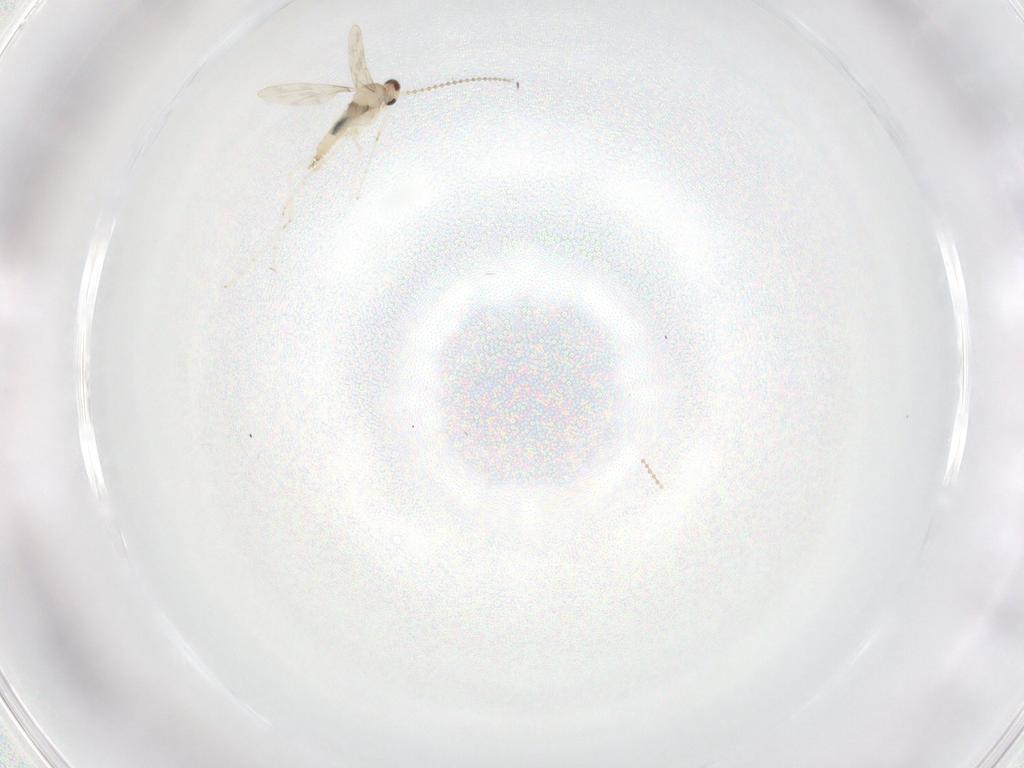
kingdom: Animalia
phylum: Arthropoda
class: Insecta
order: Diptera
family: Cecidomyiidae
